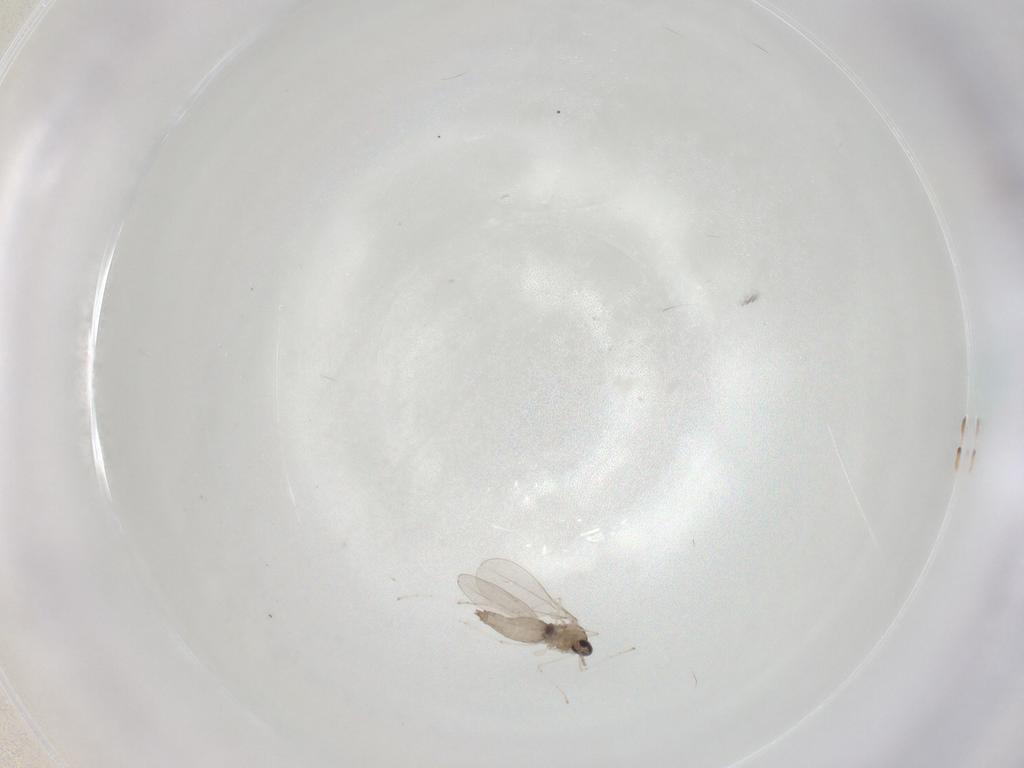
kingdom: Animalia
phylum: Arthropoda
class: Insecta
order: Diptera
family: Cecidomyiidae
